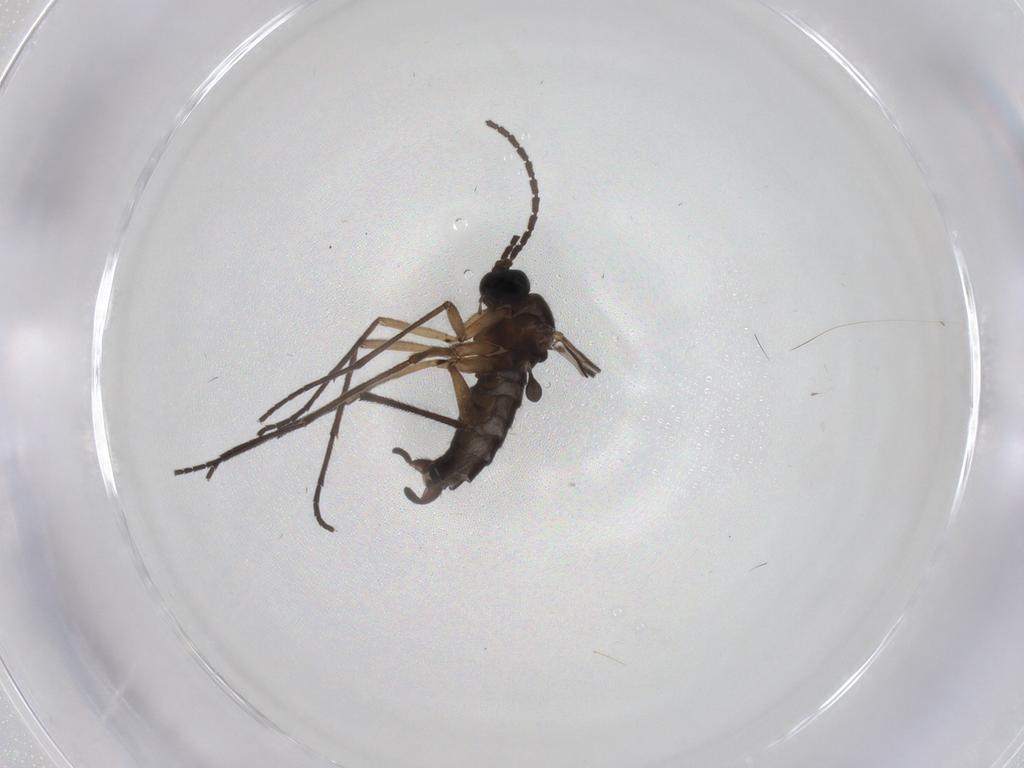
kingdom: Animalia
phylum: Arthropoda
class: Insecta
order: Diptera
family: Sciaridae
